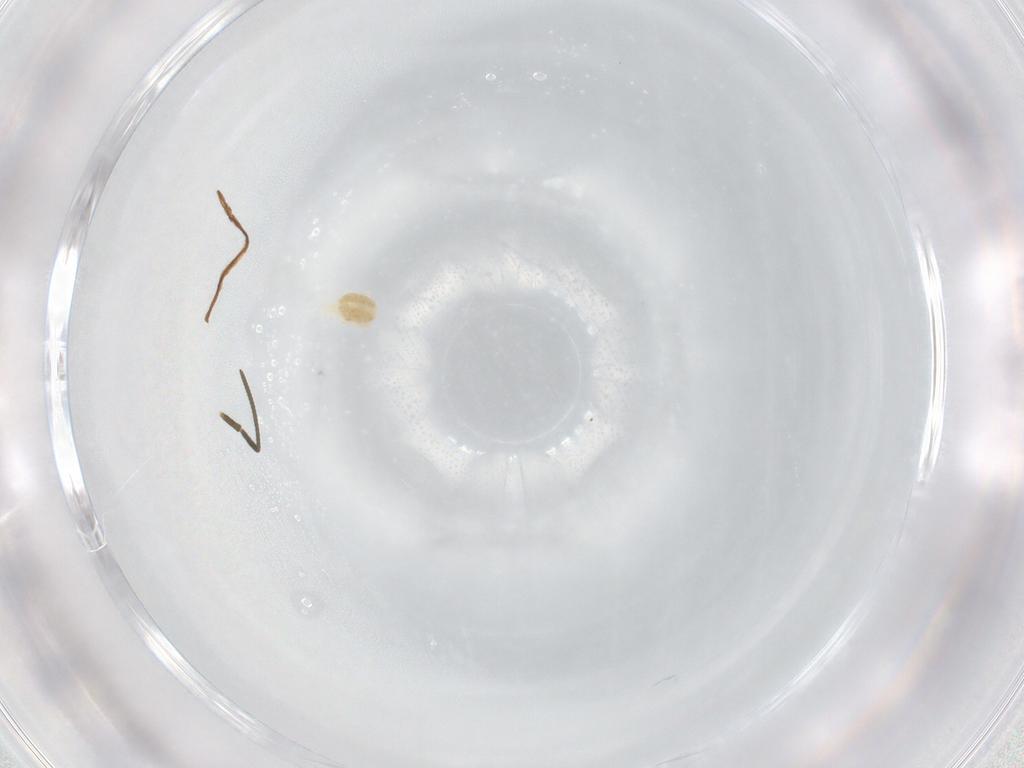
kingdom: Animalia
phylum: Arthropoda
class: Arachnida
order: Trombidiformes
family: Eupodidae
